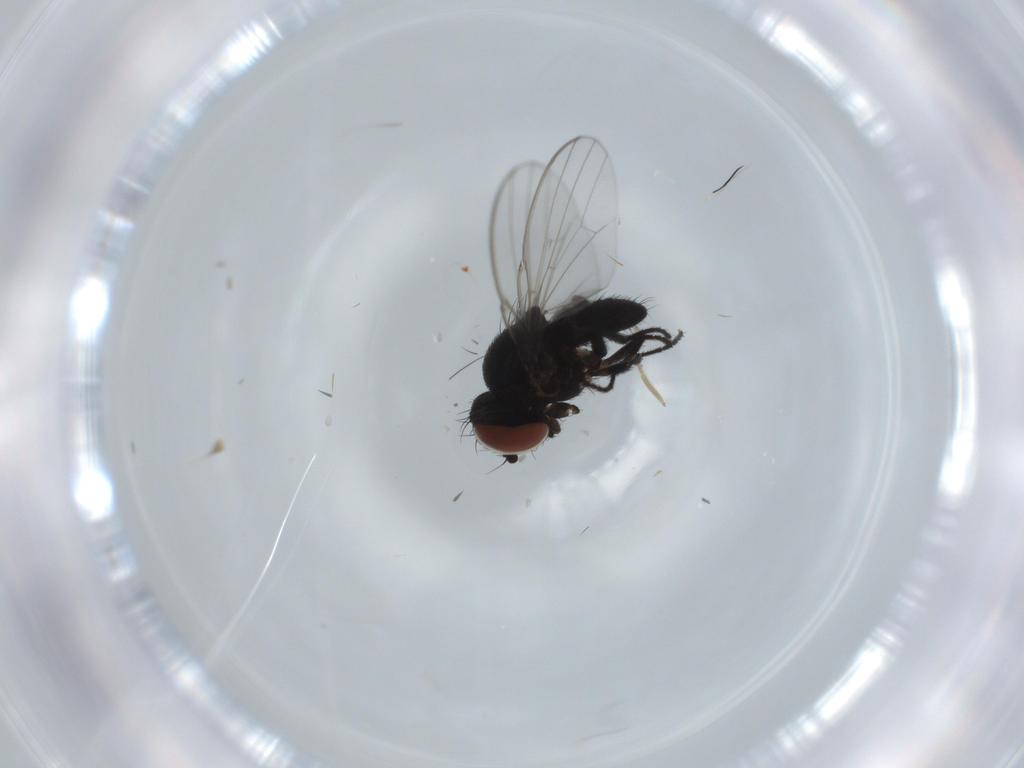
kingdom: Animalia
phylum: Arthropoda
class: Insecta
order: Diptera
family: Milichiidae
